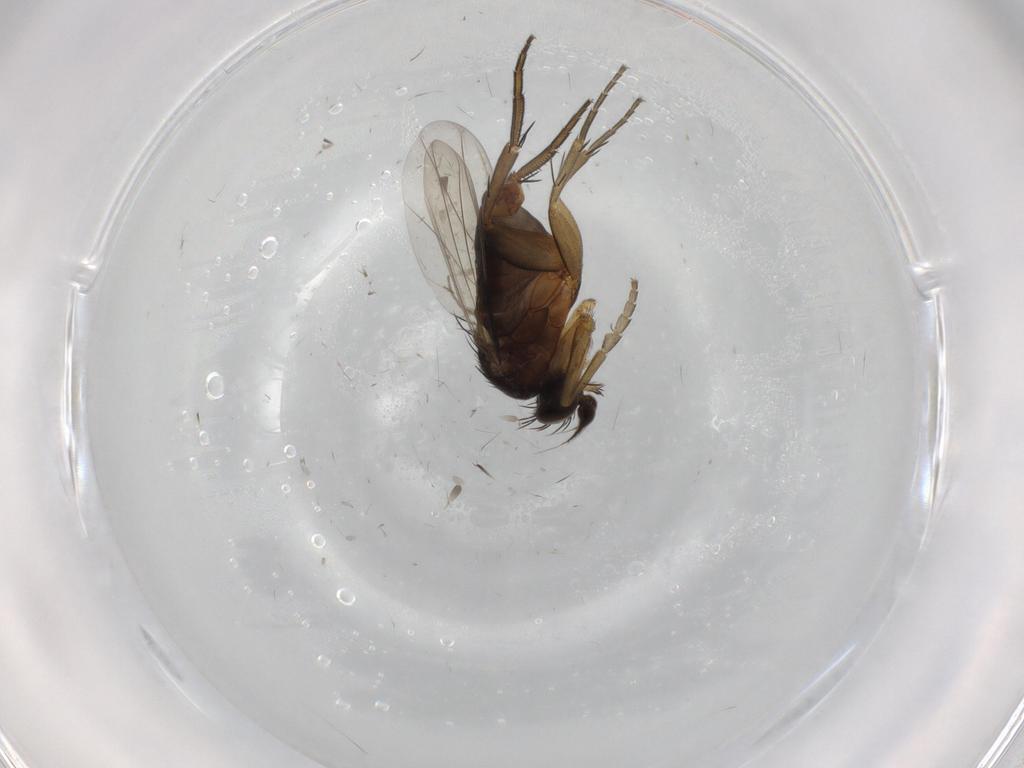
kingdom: Animalia
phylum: Arthropoda
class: Insecta
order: Diptera
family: Phoridae
